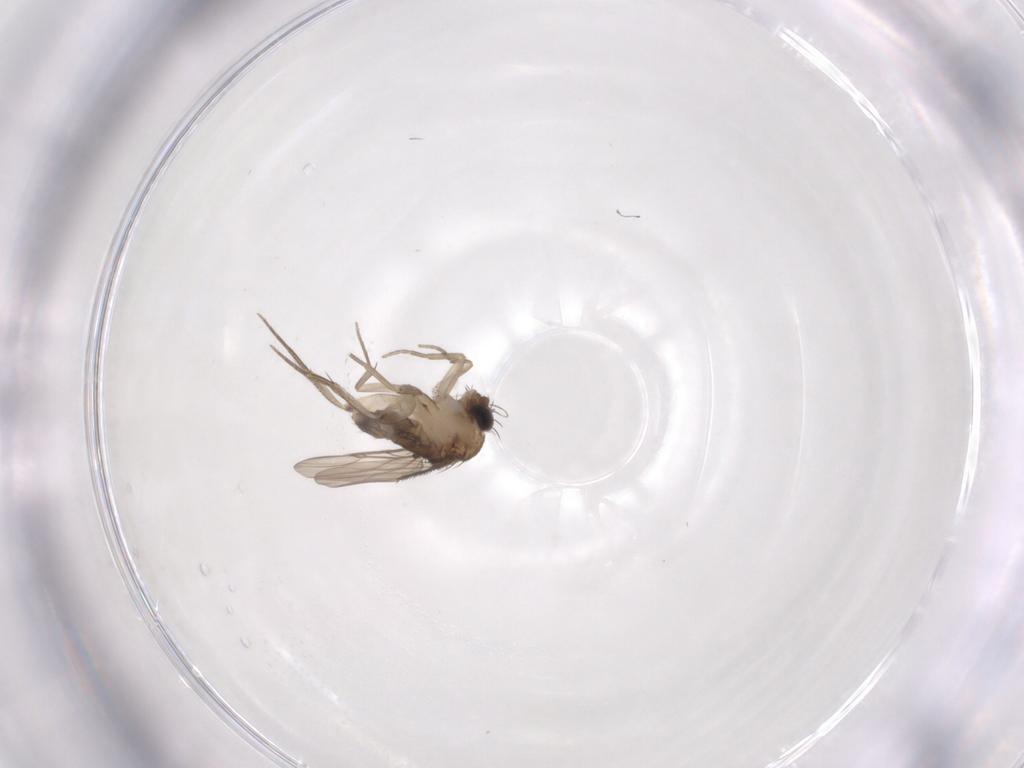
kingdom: Animalia
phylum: Arthropoda
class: Insecta
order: Diptera
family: Phoridae
